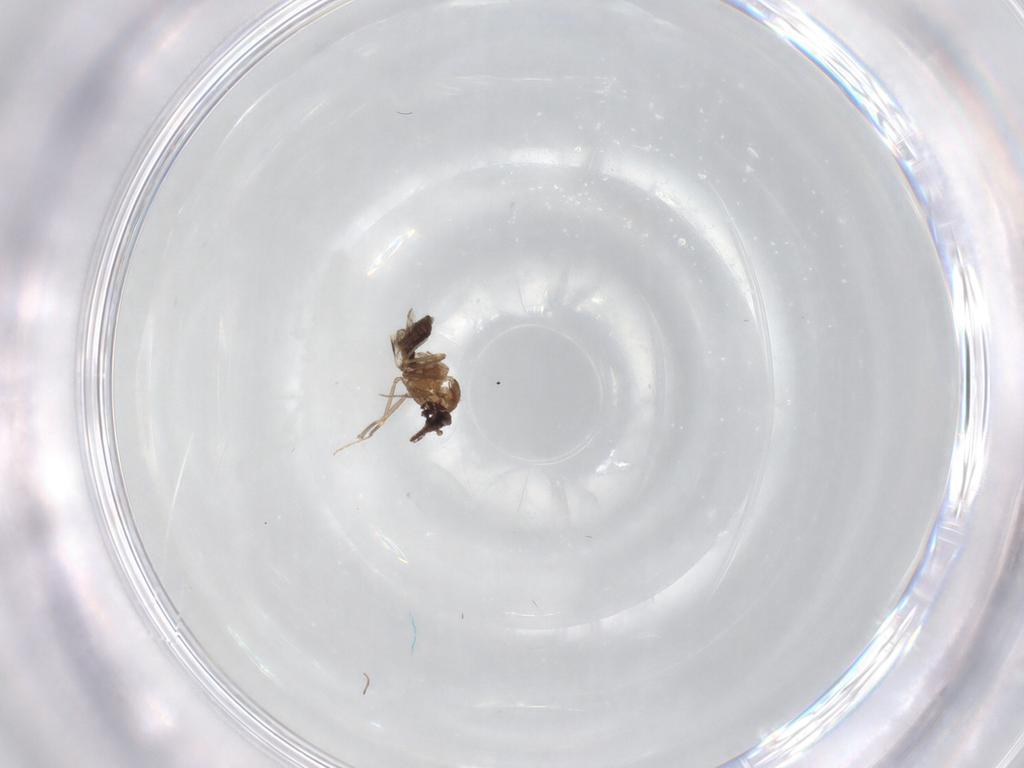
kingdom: Animalia
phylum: Arthropoda
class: Insecta
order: Diptera
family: Ceratopogonidae
